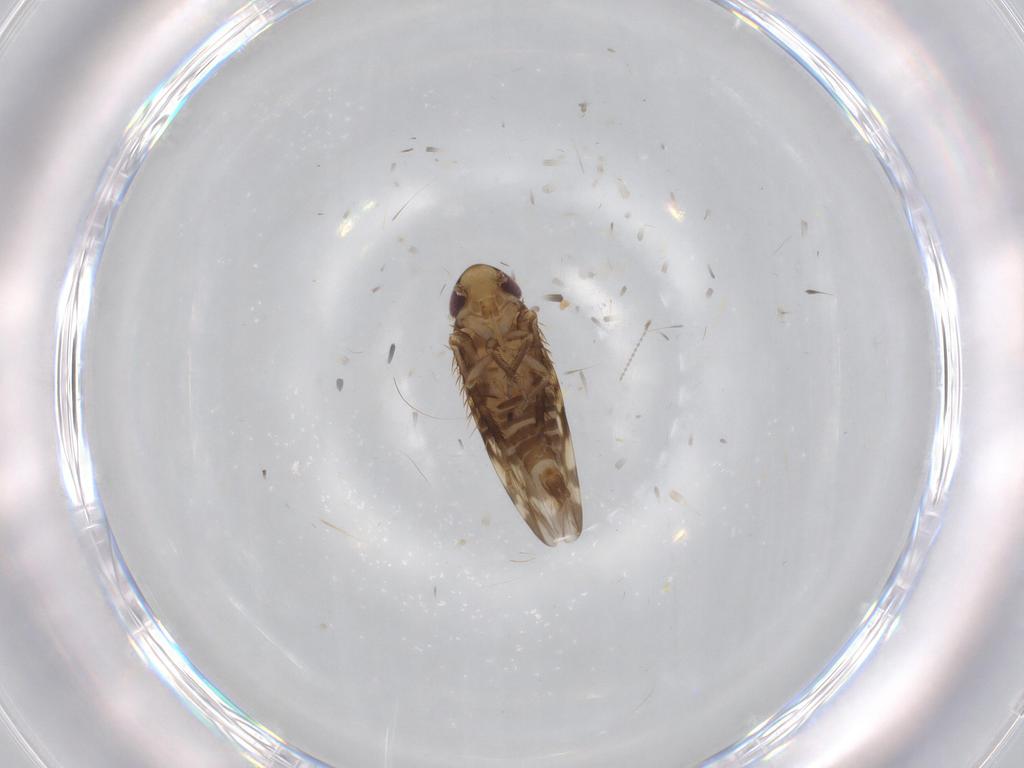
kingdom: Animalia
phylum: Arthropoda
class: Insecta
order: Hemiptera
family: Cicadellidae
